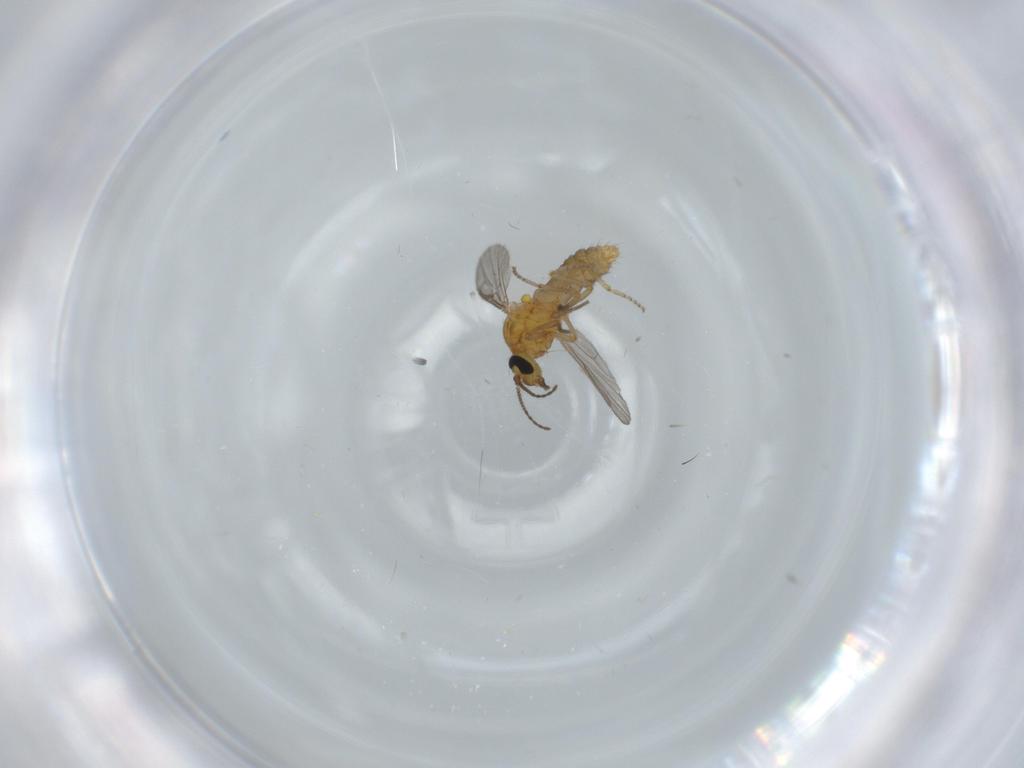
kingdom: Animalia
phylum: Arthropoda
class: Insecta
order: Diptera
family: Ceratopogonidae
